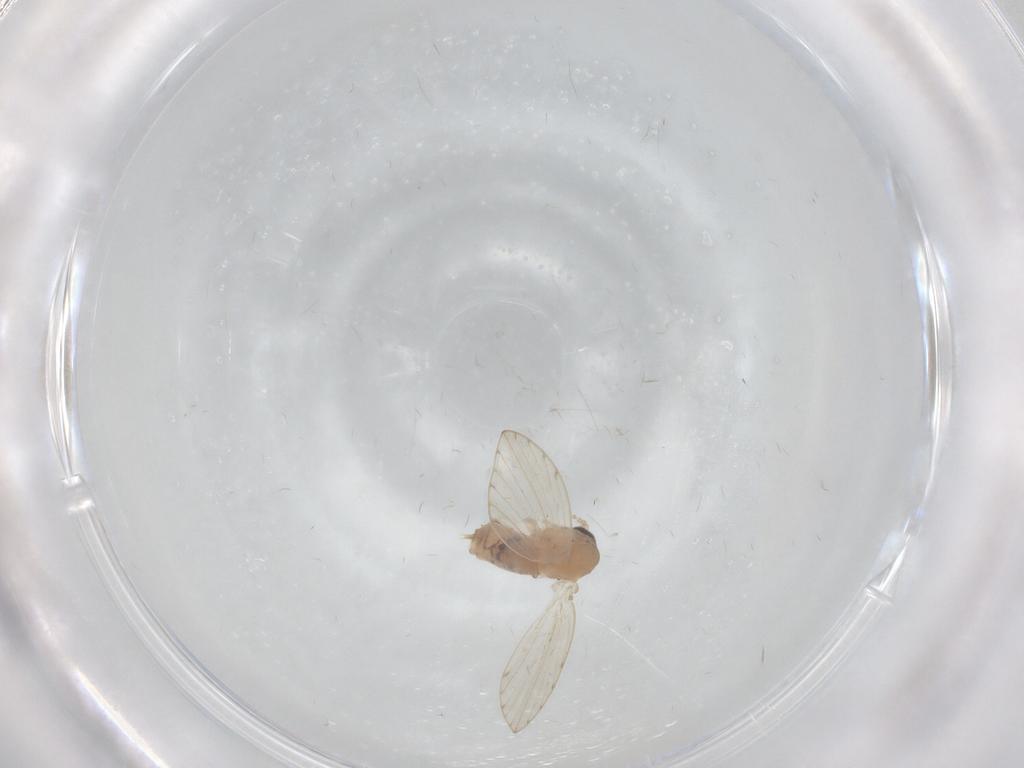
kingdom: Animalia
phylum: Arthropoda
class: Insecta
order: Diptera
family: Psychodidae
